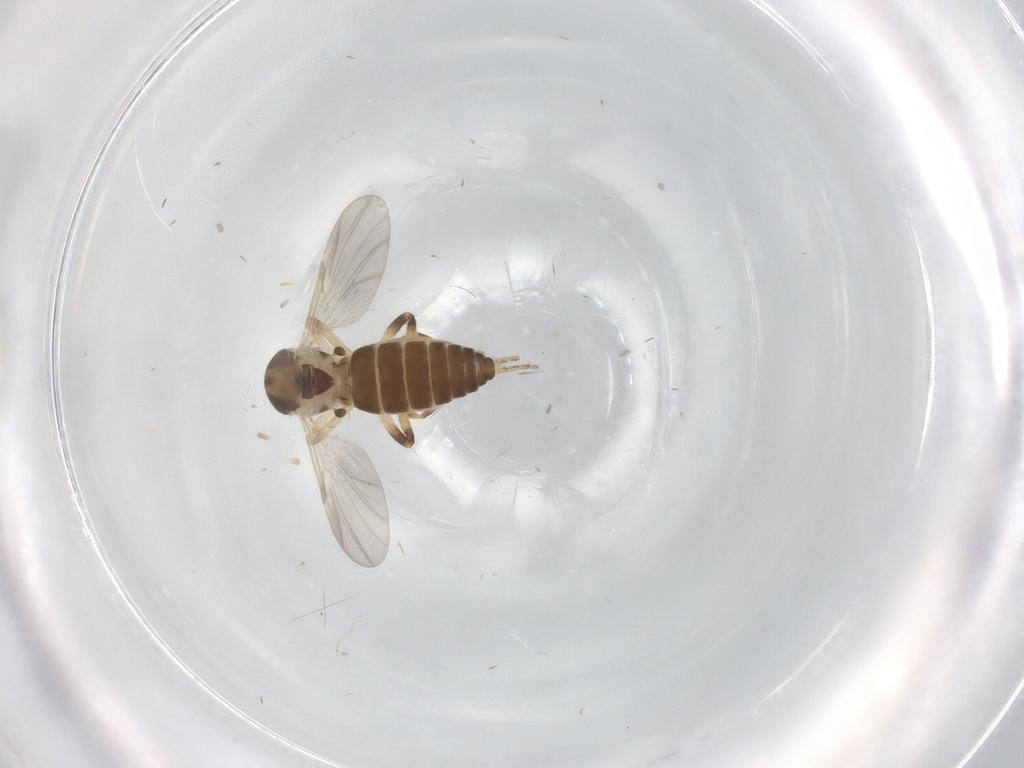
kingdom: Animalia
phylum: Arthropoda
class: Insecta
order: Diptera
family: Ceratopogonidae
